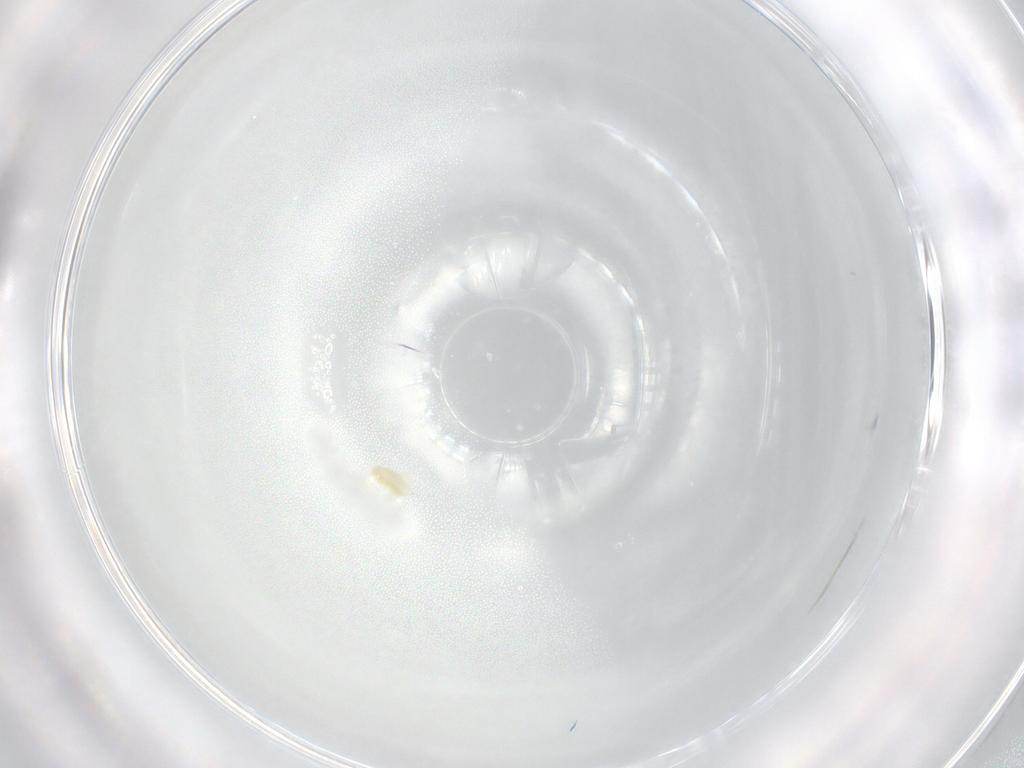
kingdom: Animalia
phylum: Arthropoda
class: Arachnida
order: Trombidiformes
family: Eupodidae
